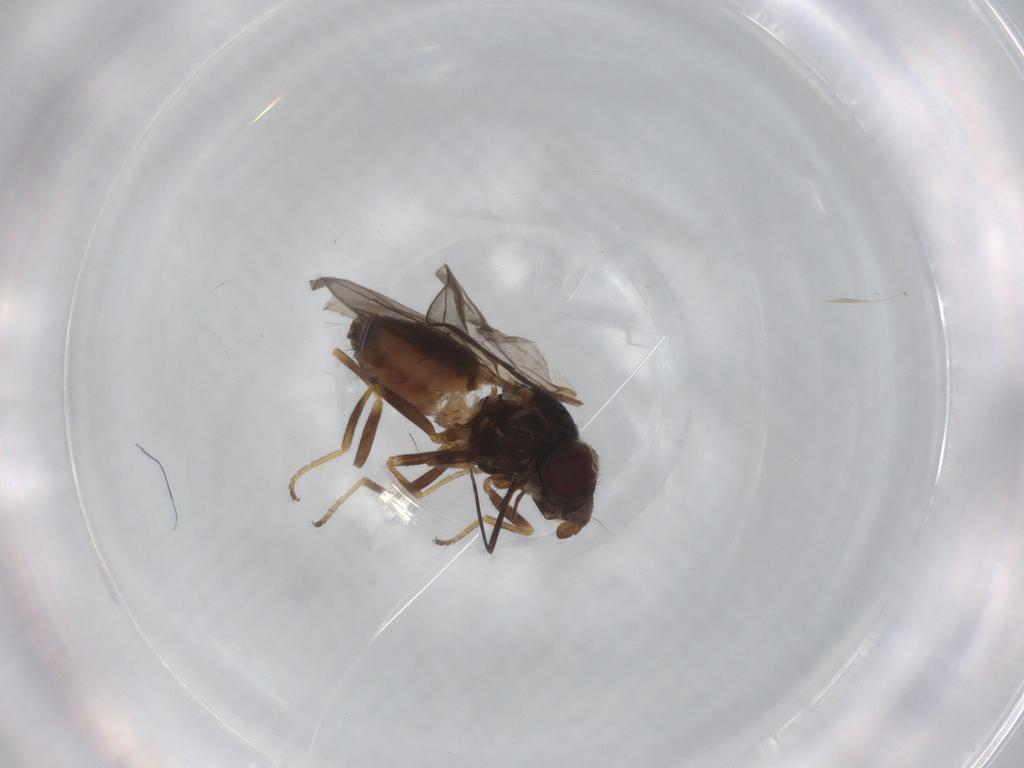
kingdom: Animalia
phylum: Arthropoda
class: Insecta
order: Diptera
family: Chloropidae
